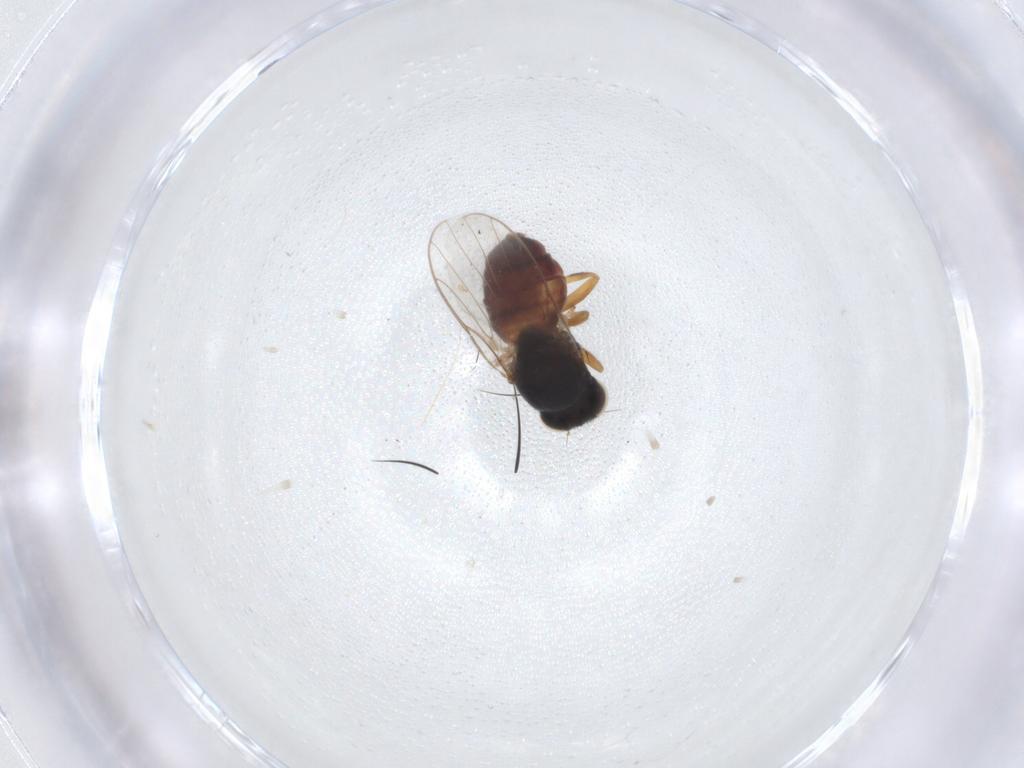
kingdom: Animalia
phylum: Arthropoda
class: Insecta
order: Diptera
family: Chloropidae
